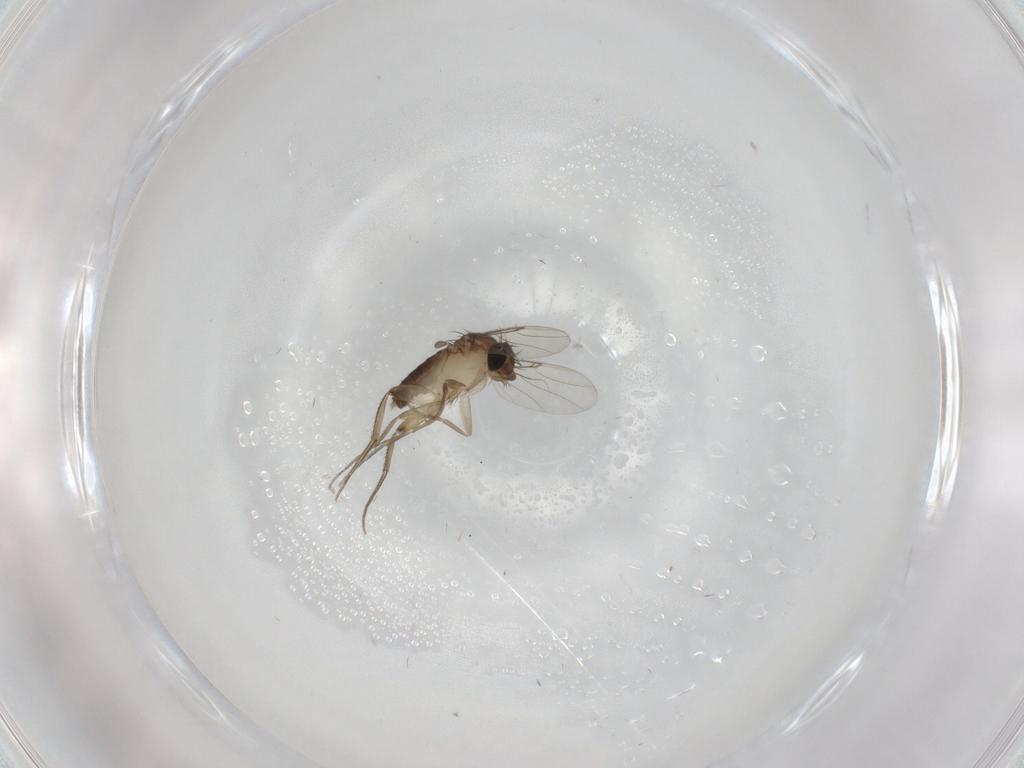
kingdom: Animalia
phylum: Arthropoda
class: Insecta
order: Diptera
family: Phoridae
